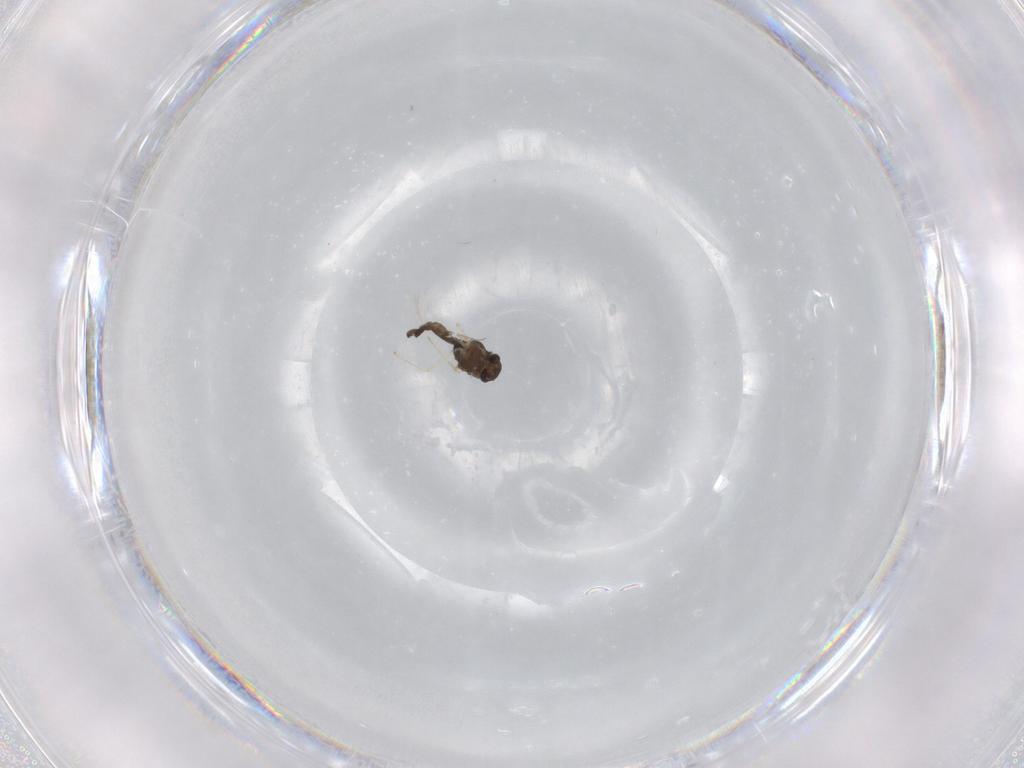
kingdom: Animalia
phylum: Arthropoda
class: Insecta
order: Diptera
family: Chironomidae
